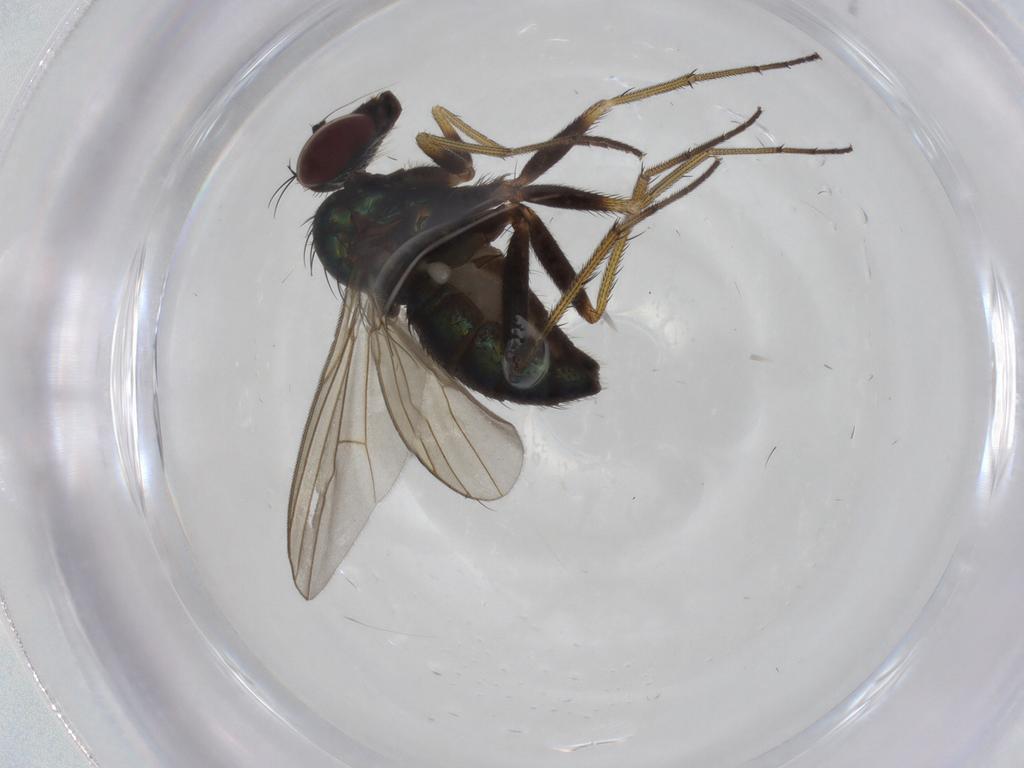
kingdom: Animalia
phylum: Arthropoda
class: Insecta
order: Diptera
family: Dolichopodidae
